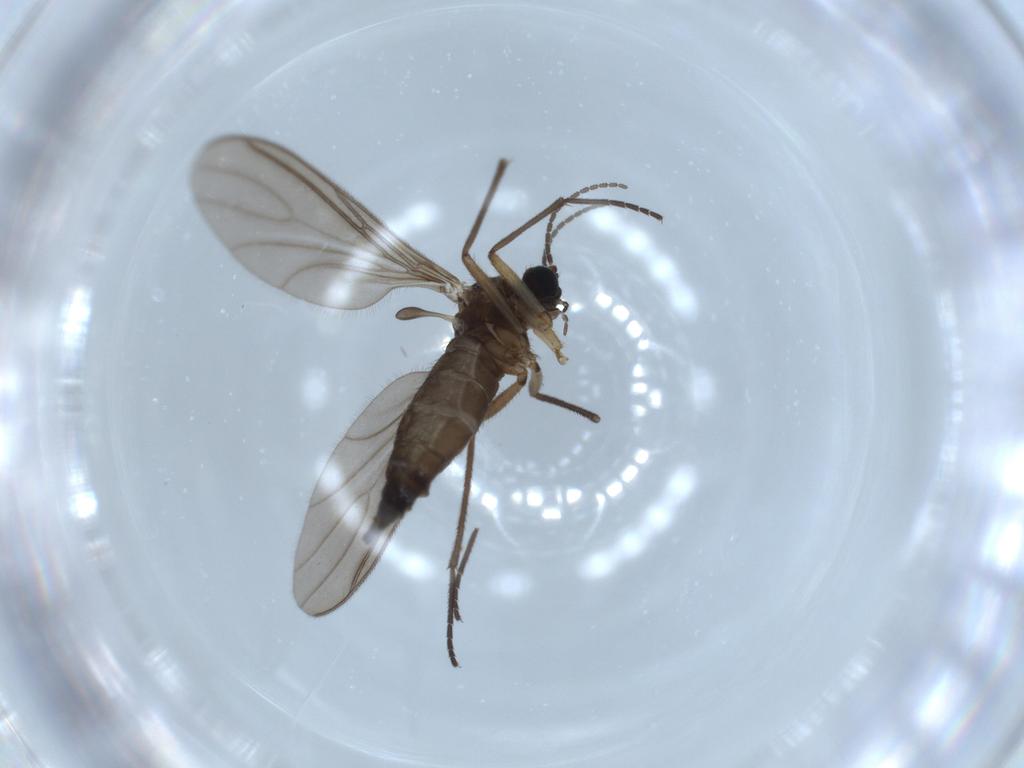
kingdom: Animalia
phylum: Arthropoda
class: Insecta
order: Diptera
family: Sciaridae
